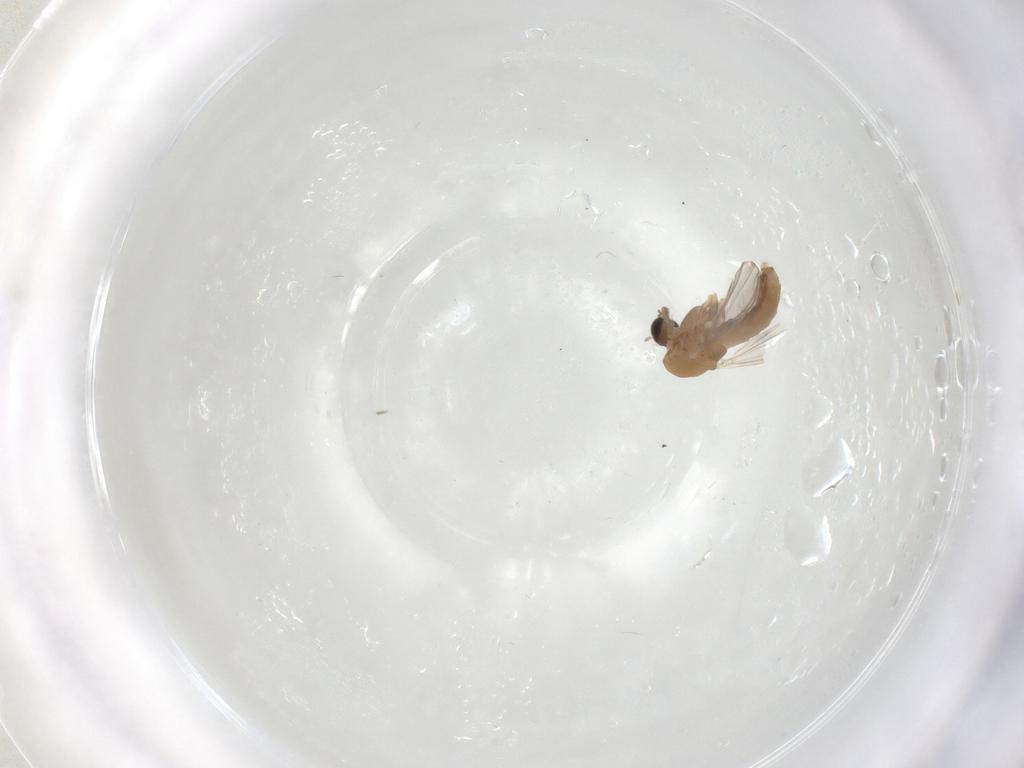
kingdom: Animalia
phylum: Arthropoda
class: Insecta
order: Diptera
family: Chironomidae
